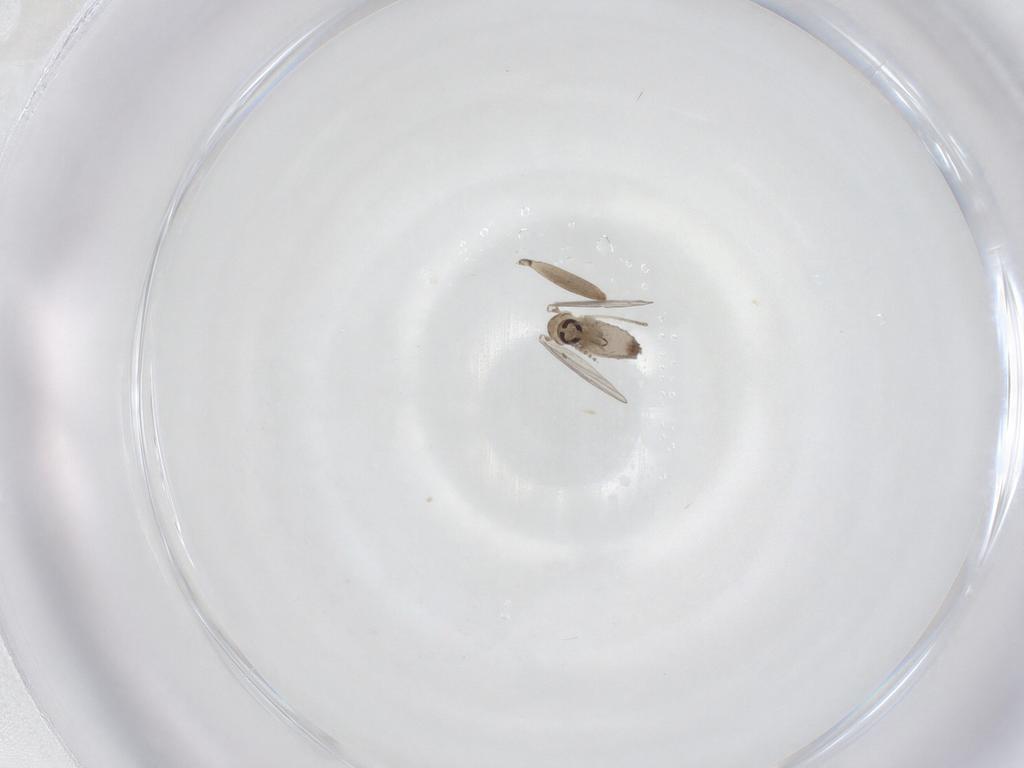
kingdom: Animalia
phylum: Arthropoda
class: Insecta
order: Diptera
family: Psychodidae
